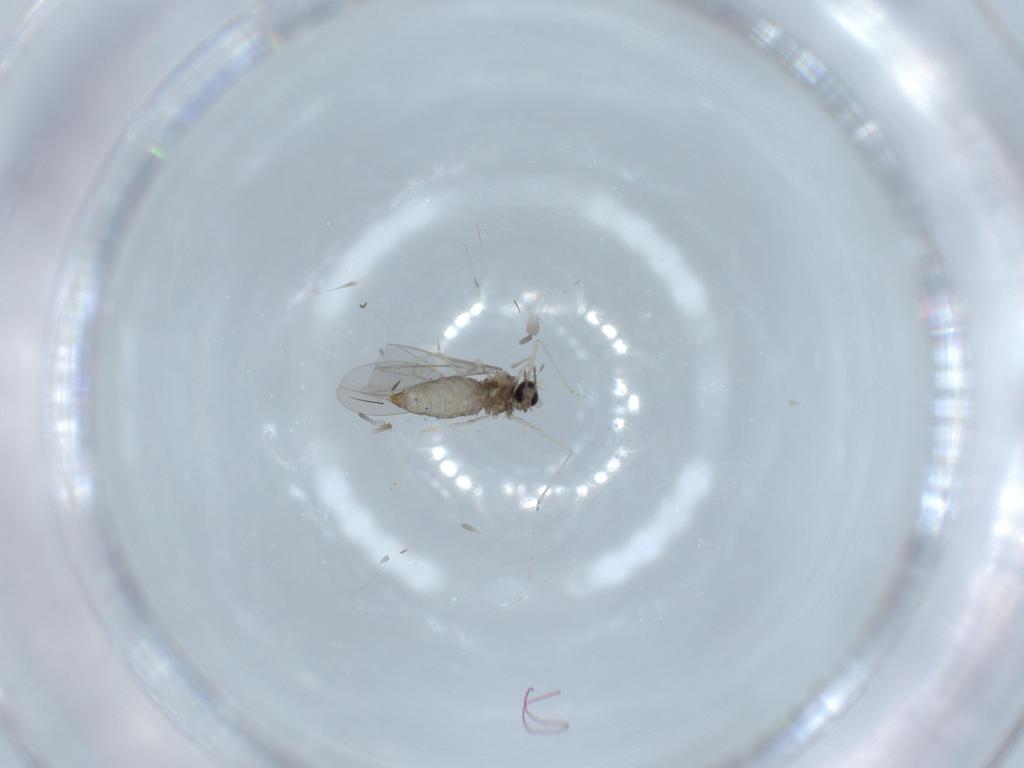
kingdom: Animalia
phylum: Arthropoda
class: Insecta
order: Diptera
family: Cecidomyiidae
